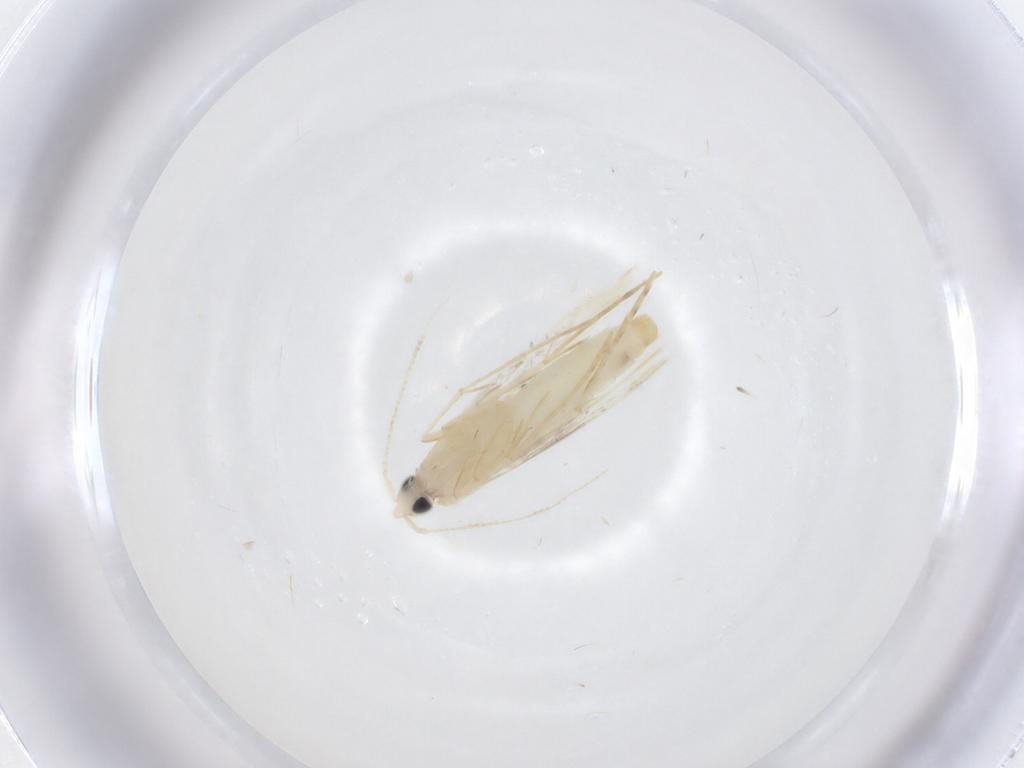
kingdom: Animalia
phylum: Arthropoda
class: Insecta
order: Lepidoptera
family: Saturniidae
